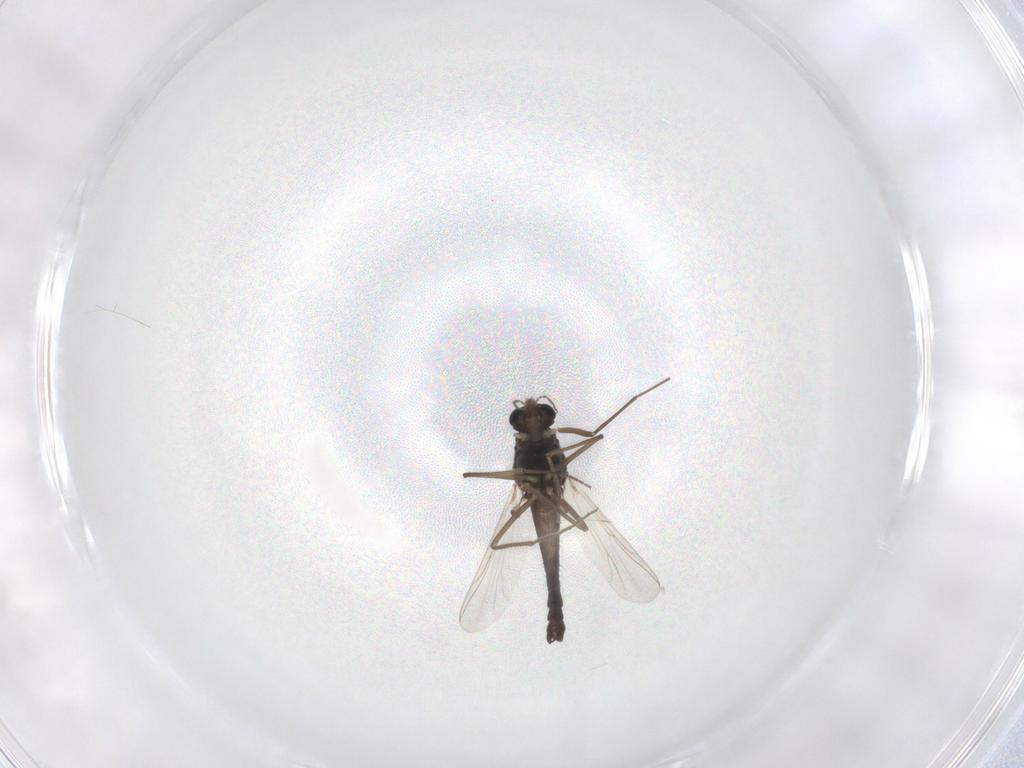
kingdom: Animalia
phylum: Arthropoda
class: Insecta
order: Diptera
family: Chironomidae
